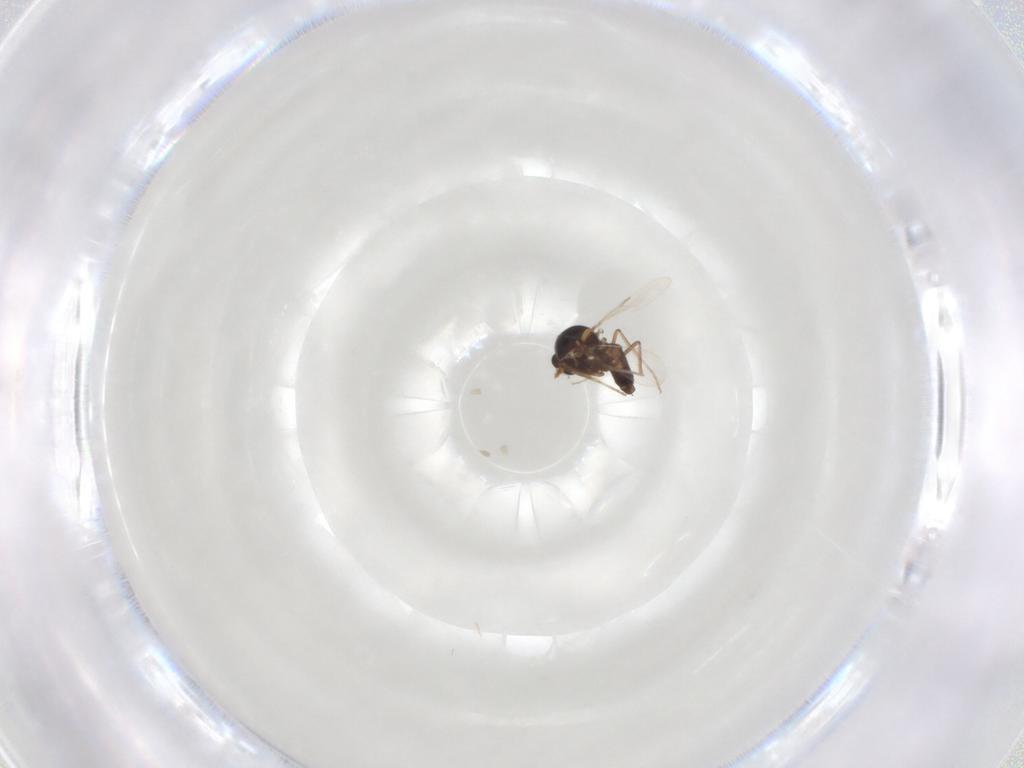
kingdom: Animalia
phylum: Arthropoda
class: Insecta
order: Diptera
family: Ceratopogonidae
